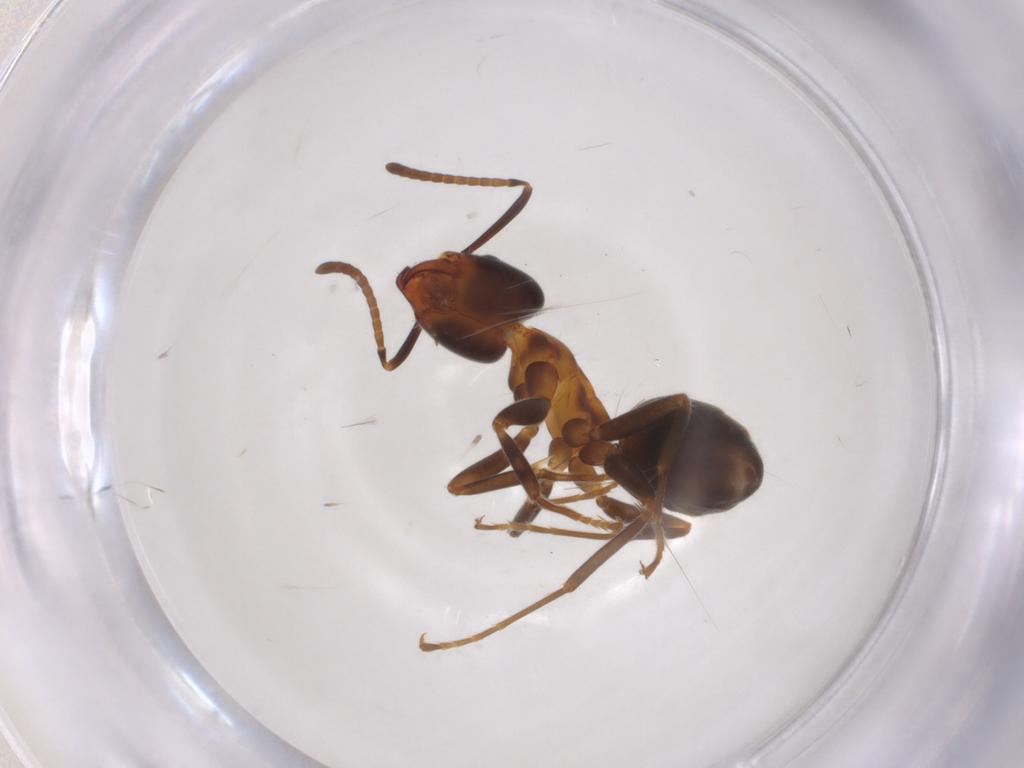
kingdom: Animalia
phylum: Arthropoda
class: Insecta
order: Hymenoptera
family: Formicidae
